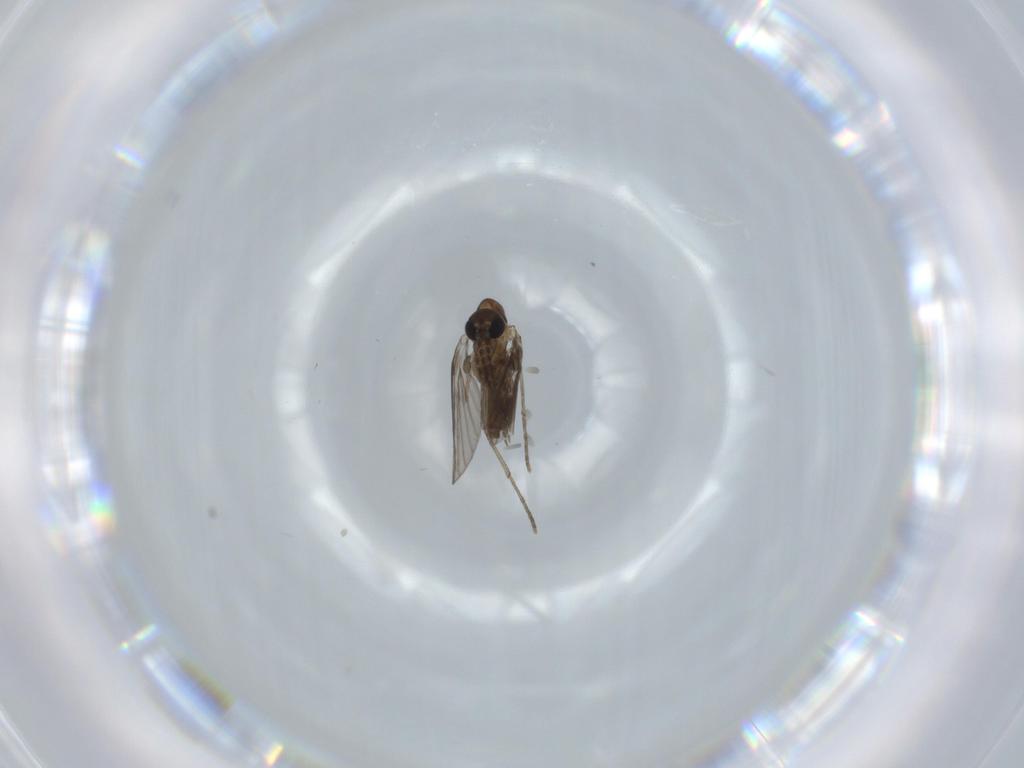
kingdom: Animalia
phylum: Arthropoda
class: Insecta
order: Diptera
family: Psychodidae
